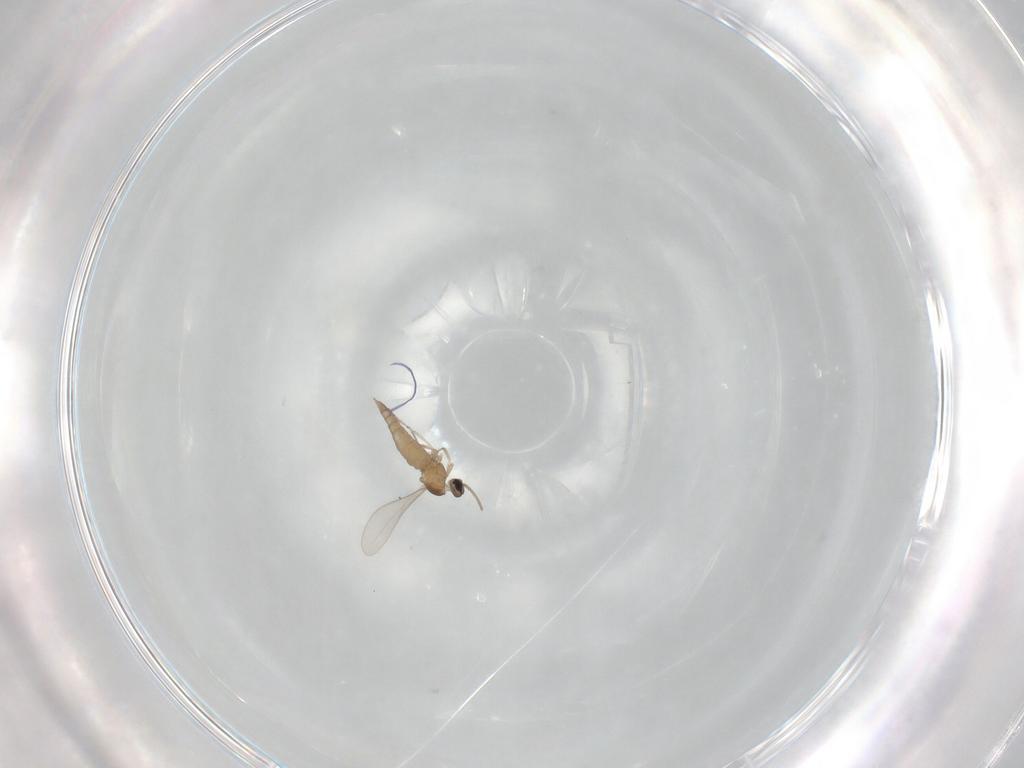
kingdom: Animalia
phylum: Arthropoda
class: Insecta
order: Diptera
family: Cecidomyiidae
